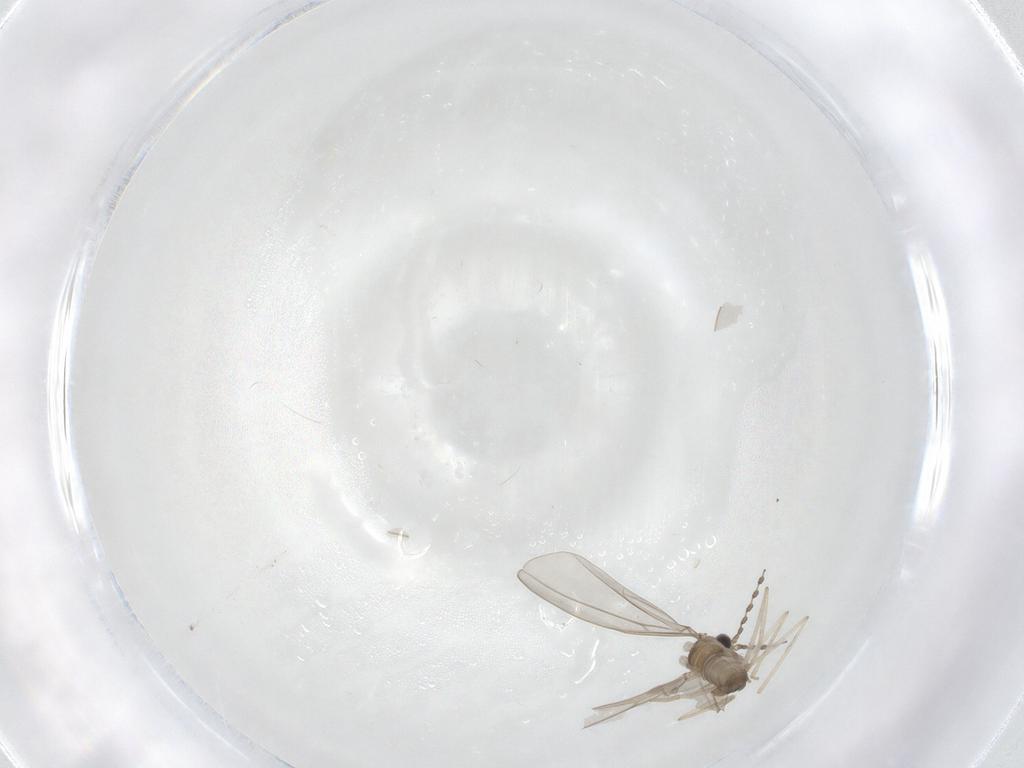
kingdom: Animalia
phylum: Arthropoda
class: Insecta
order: Diptera
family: Cecidomyiidae
